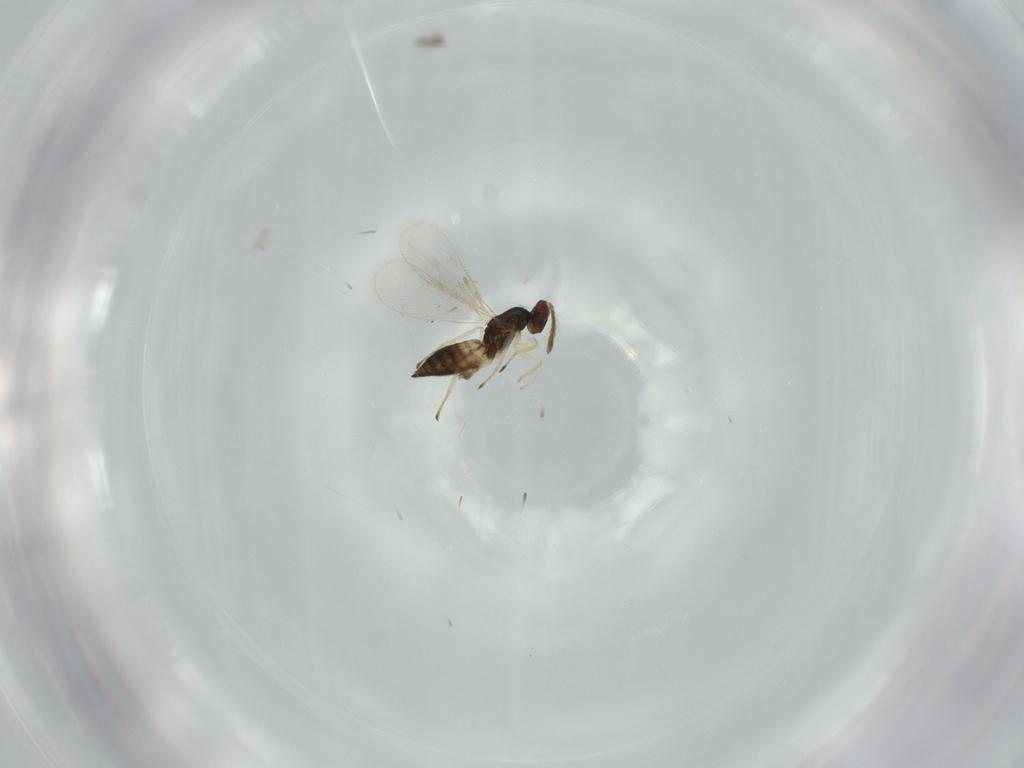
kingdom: Animalia
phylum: Arthropoda
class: Insecta
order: Hymenoptera
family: Eulophidae
